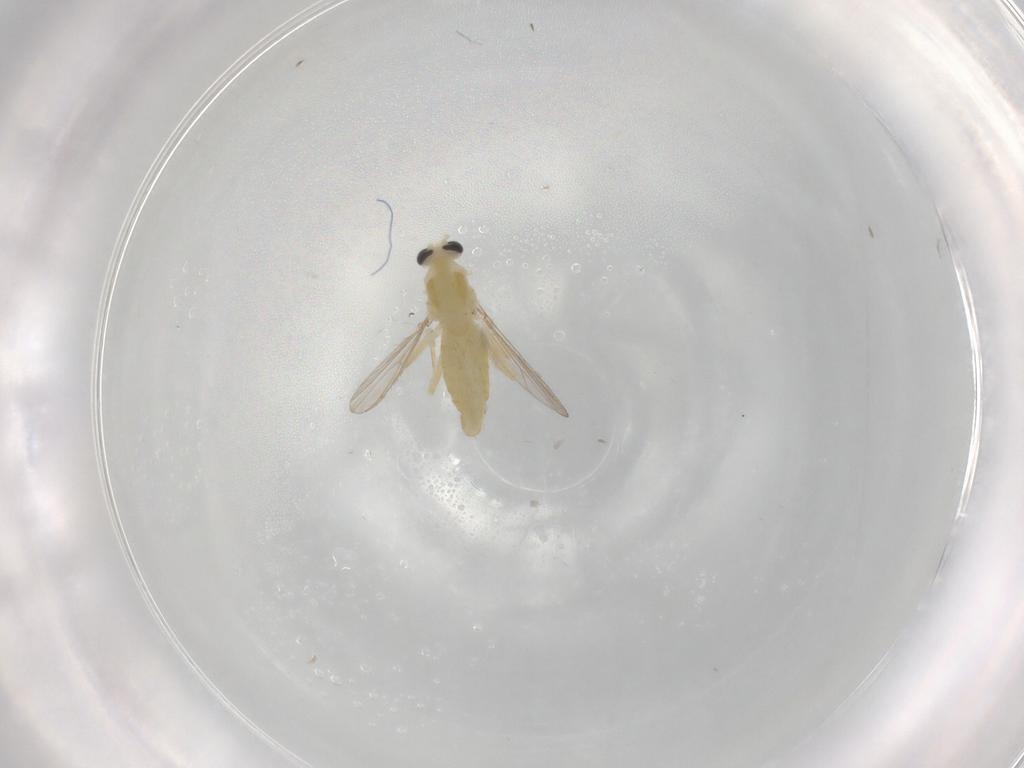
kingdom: Animalia
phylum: Arthropoda
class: Insecta
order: Diptera
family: Chironomidae
